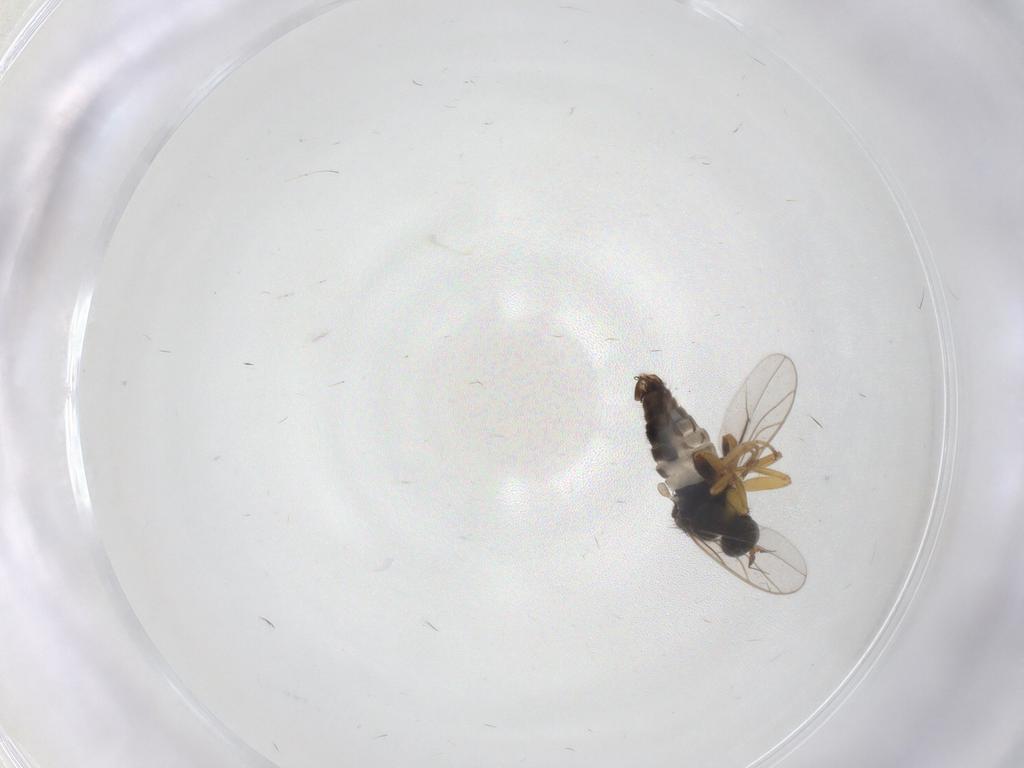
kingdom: Animalia
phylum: Arthropoda
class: Insecta
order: Diptera
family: Hybotidae
